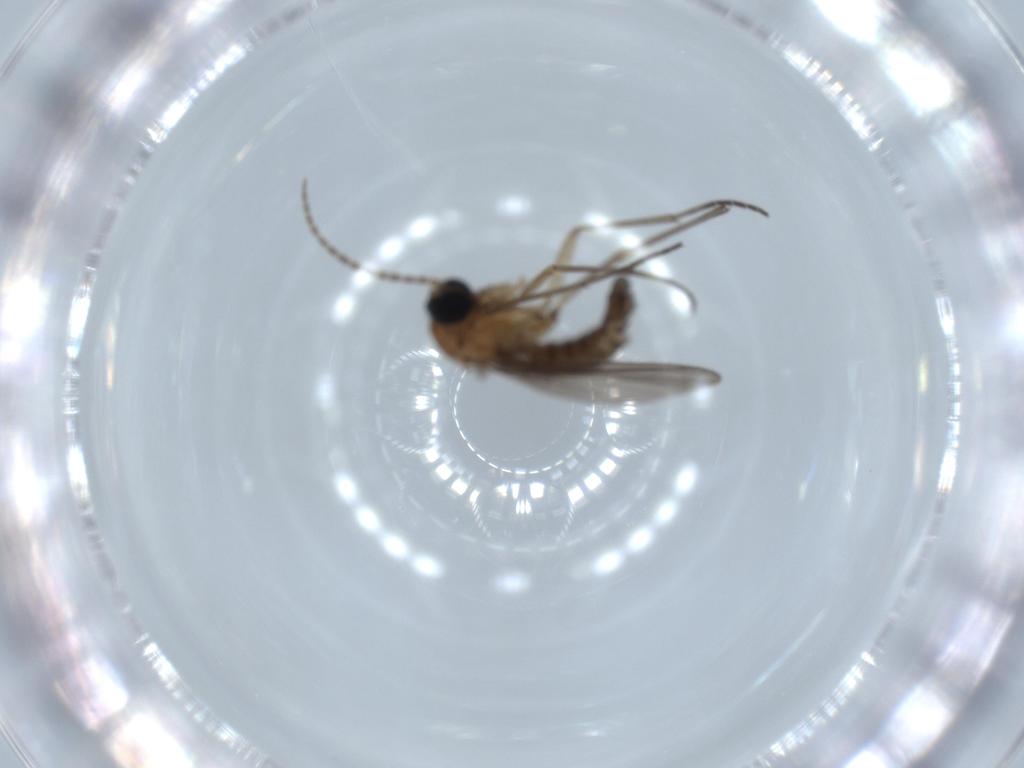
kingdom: Animalia
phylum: Arthropoda
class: Insecta
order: Diptera
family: Sciaridae
